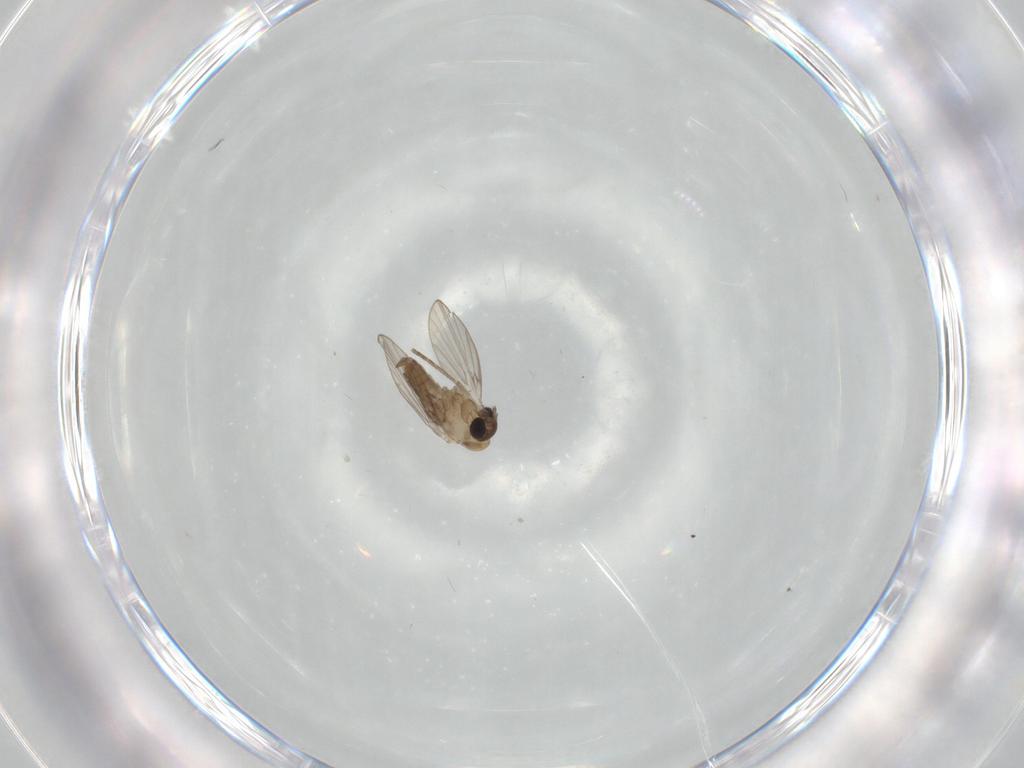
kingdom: Animalia
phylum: Arthropoda
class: Insecta
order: Diptera
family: Psychodidae
